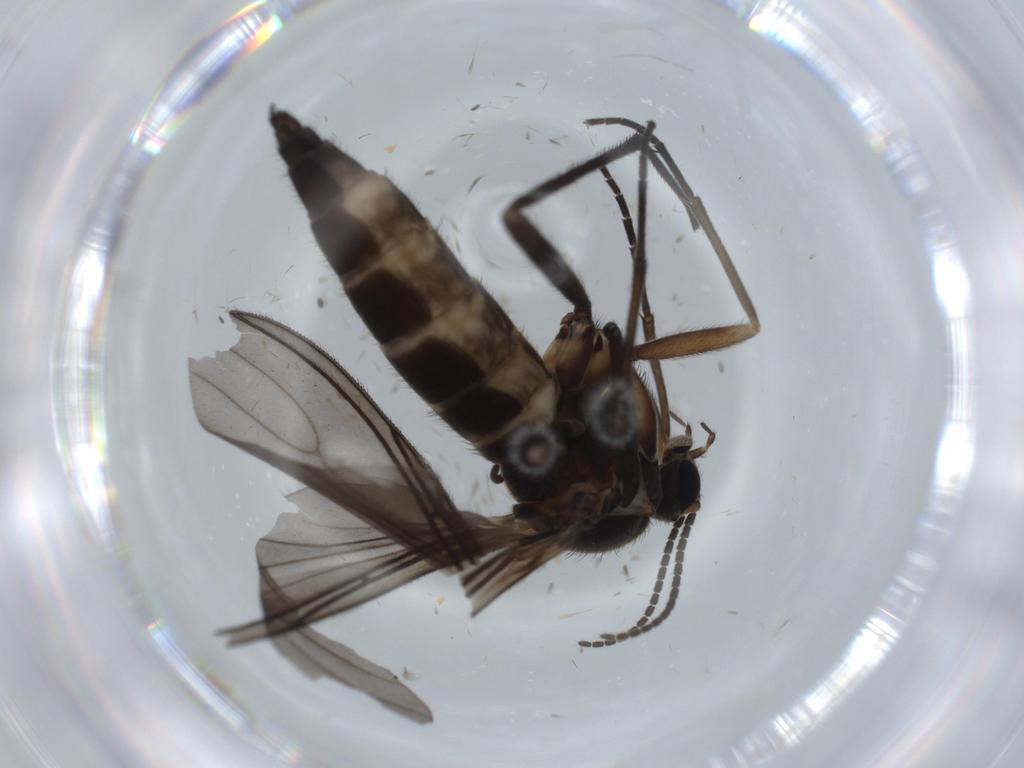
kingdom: Animalia
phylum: Arthropoda
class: Insecta
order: Diptera
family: Sciaridae
